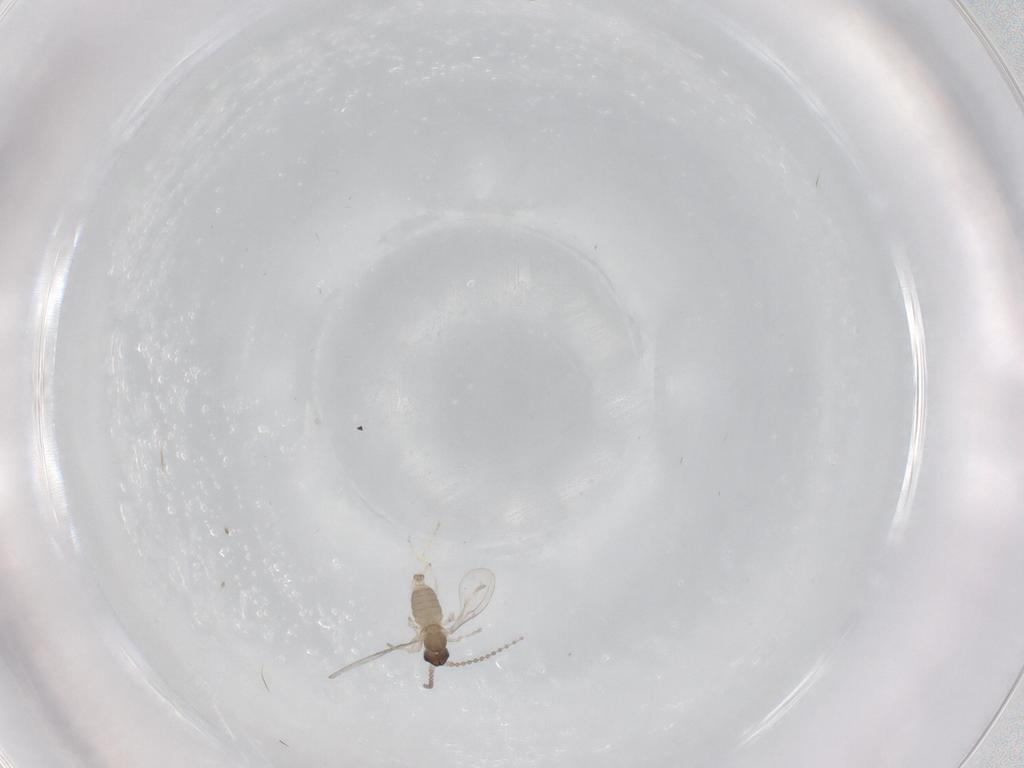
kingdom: Animalia
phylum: Arthropoda
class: Insecta
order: Diptera
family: Cecidomyiidae
